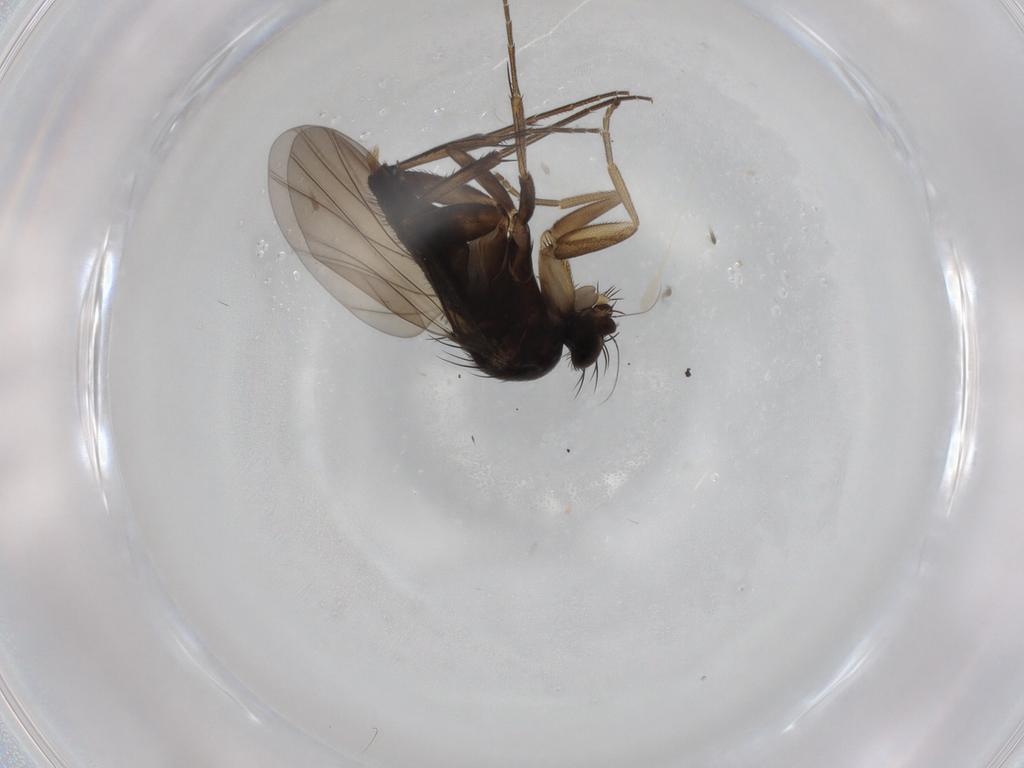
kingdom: Animalia
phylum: Arthropoda
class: Insecta
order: Diptera
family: Phoridae
